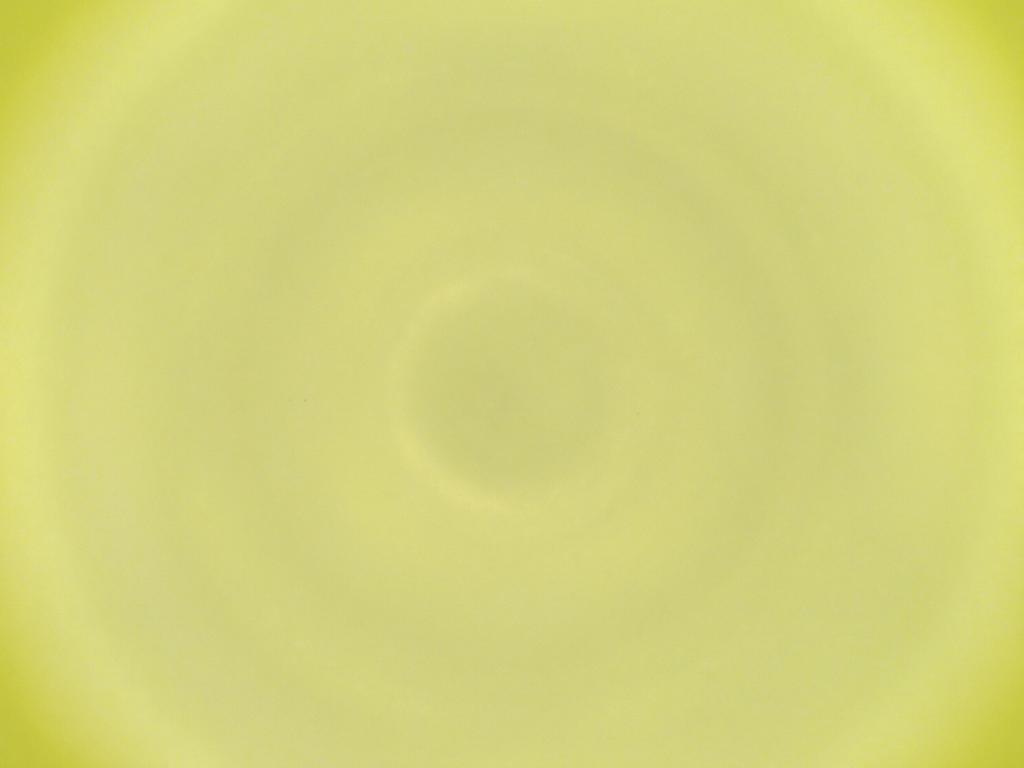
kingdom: Animalia
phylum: Arthropoda
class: Insecta
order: Diptera
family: Cecidomyiidae
